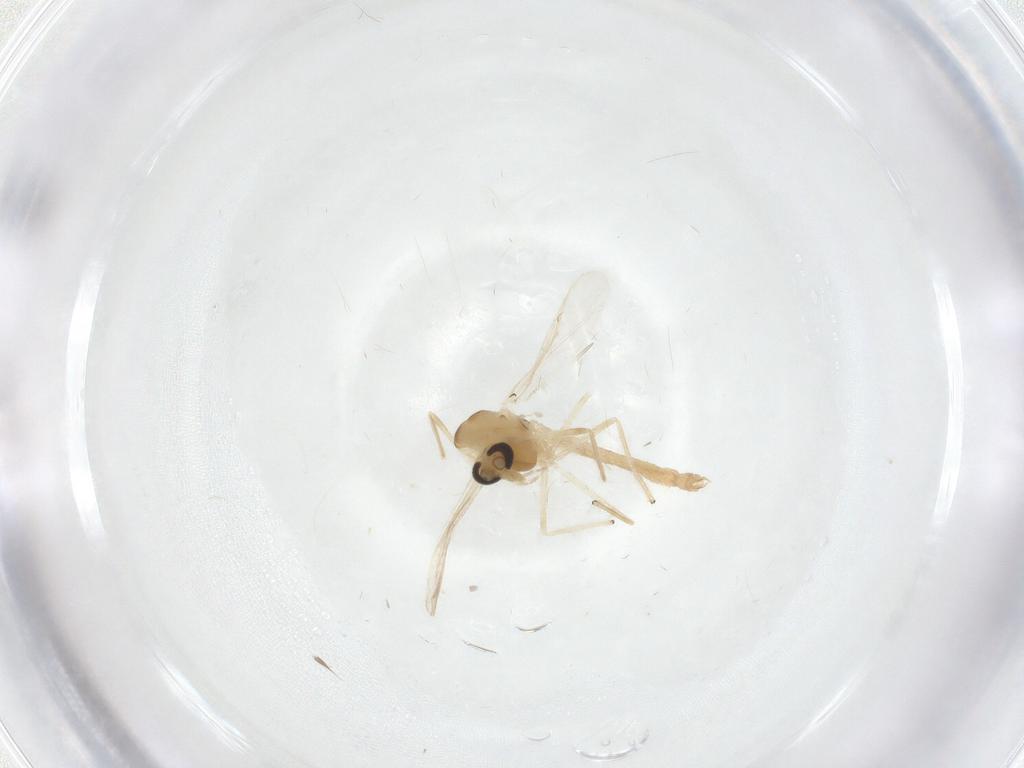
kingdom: Animalia
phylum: Arthropoda
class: Insecta
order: Diptera
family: Chironomidae
